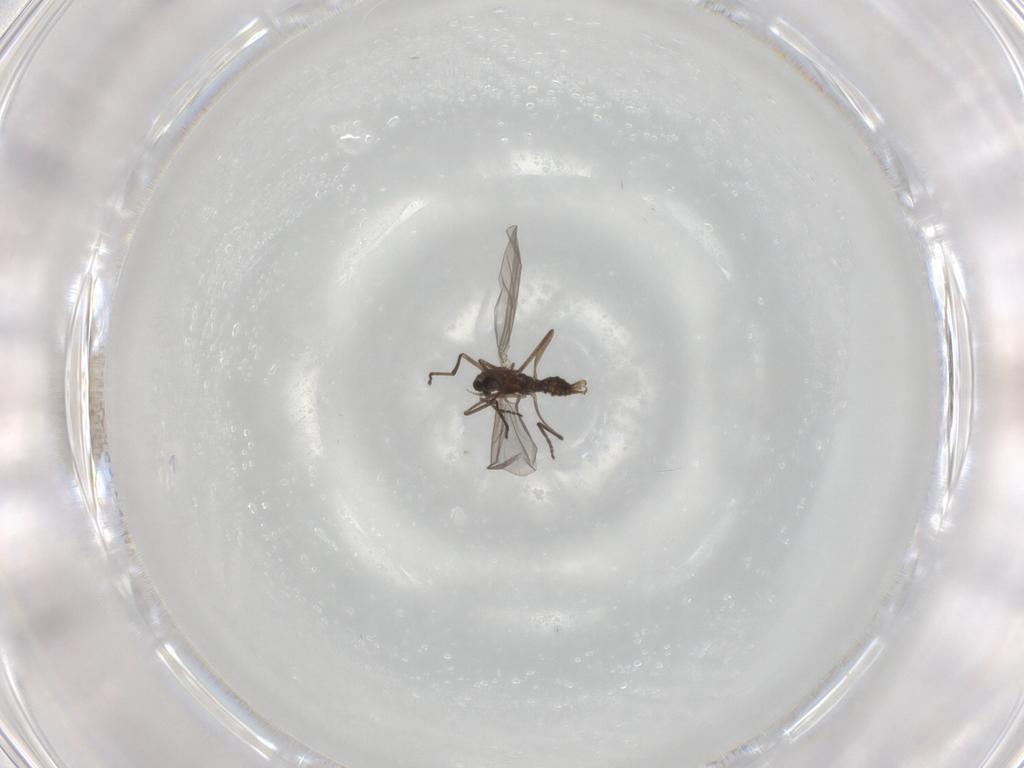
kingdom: Animalia
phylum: Arthropoda
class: Insecta
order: Diptera
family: Cecidomyiidae
